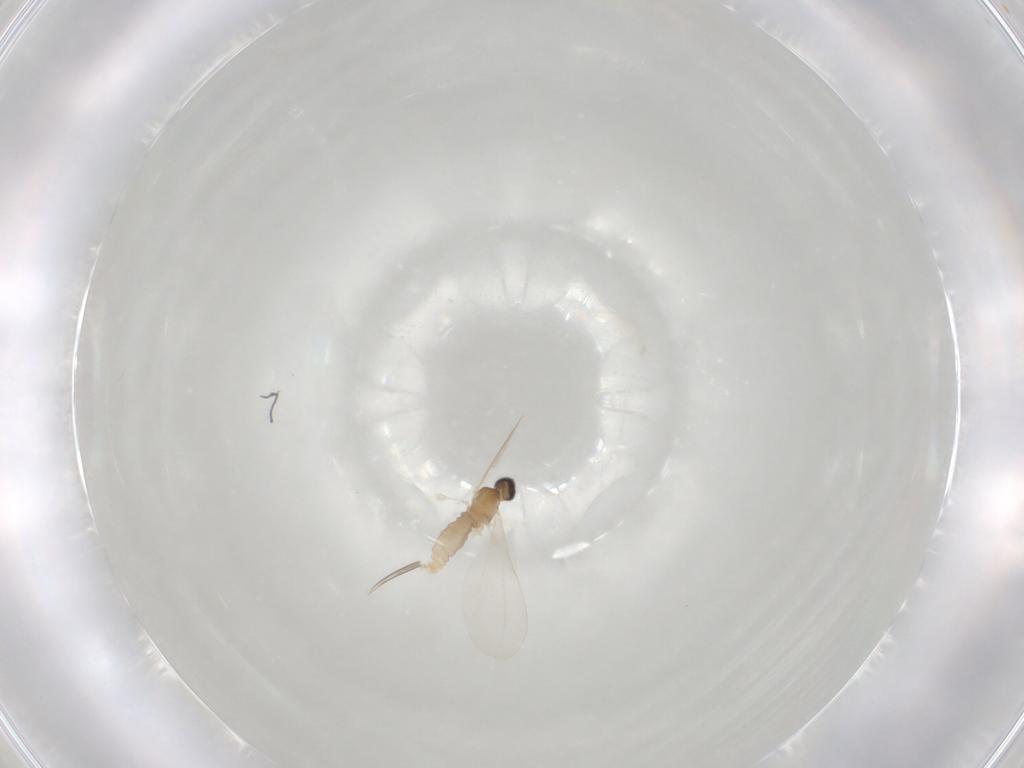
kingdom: Animalia
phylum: Arthropoda
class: Insecta
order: Diptera
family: Cecidomyiidae
